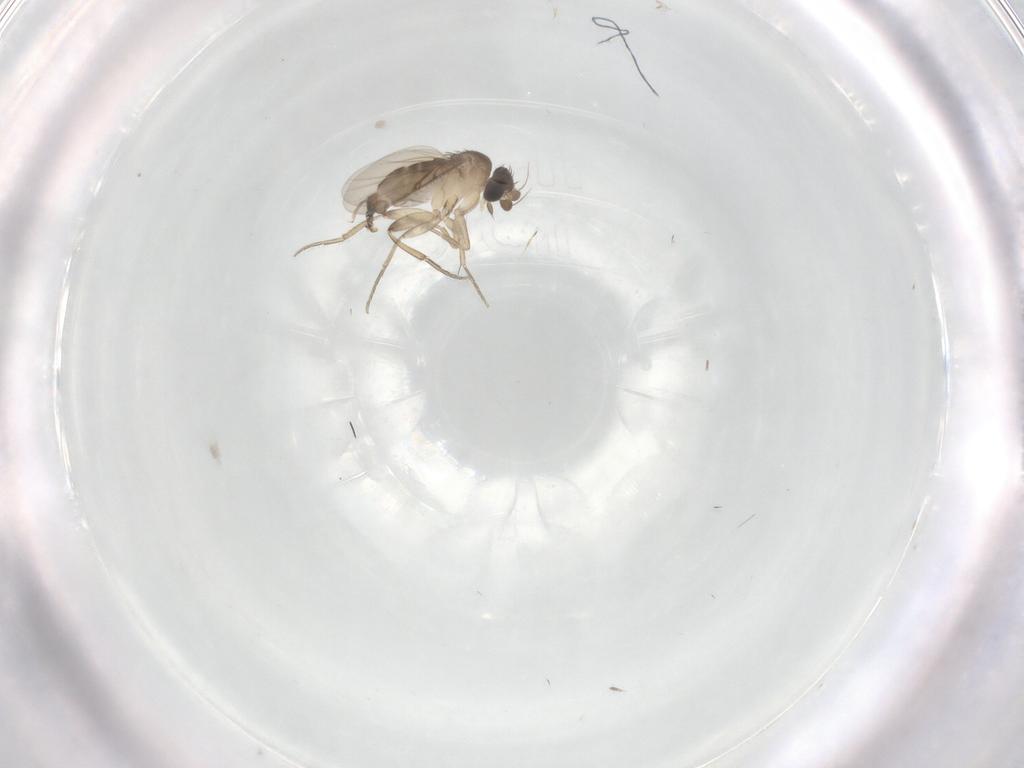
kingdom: Animalia
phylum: Arthropoda
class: Insecta
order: Diptera
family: Phoridae
